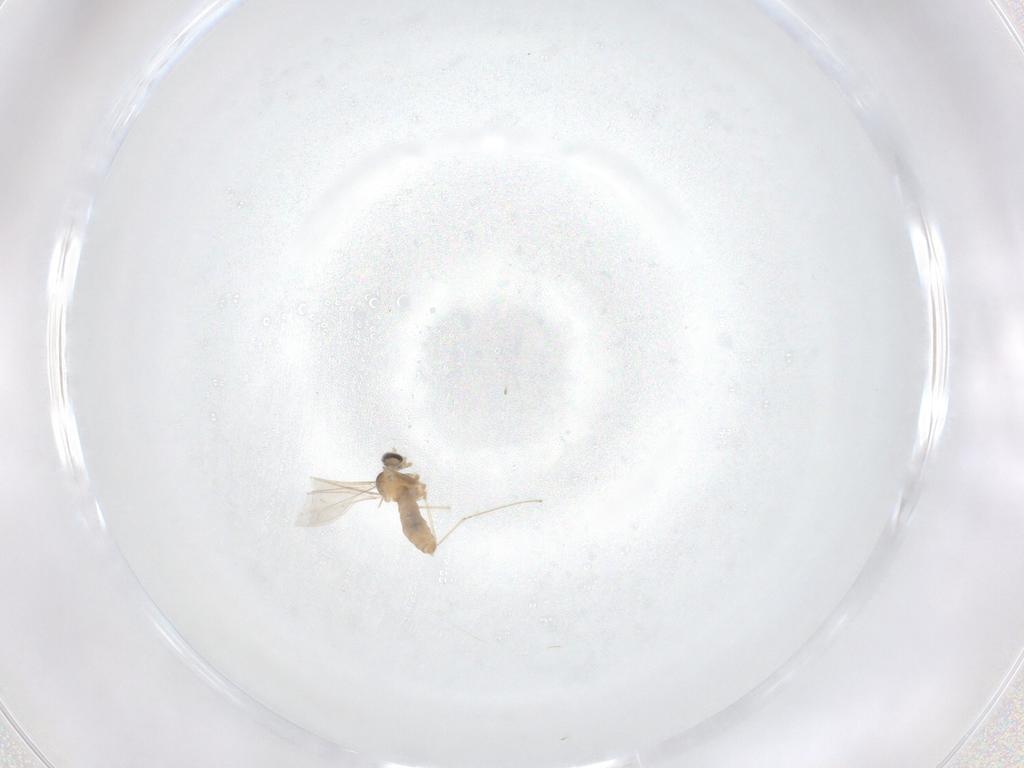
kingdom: Animalia
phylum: Arthropoda
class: Insecta
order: Diptera
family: Cecidomyiidae
